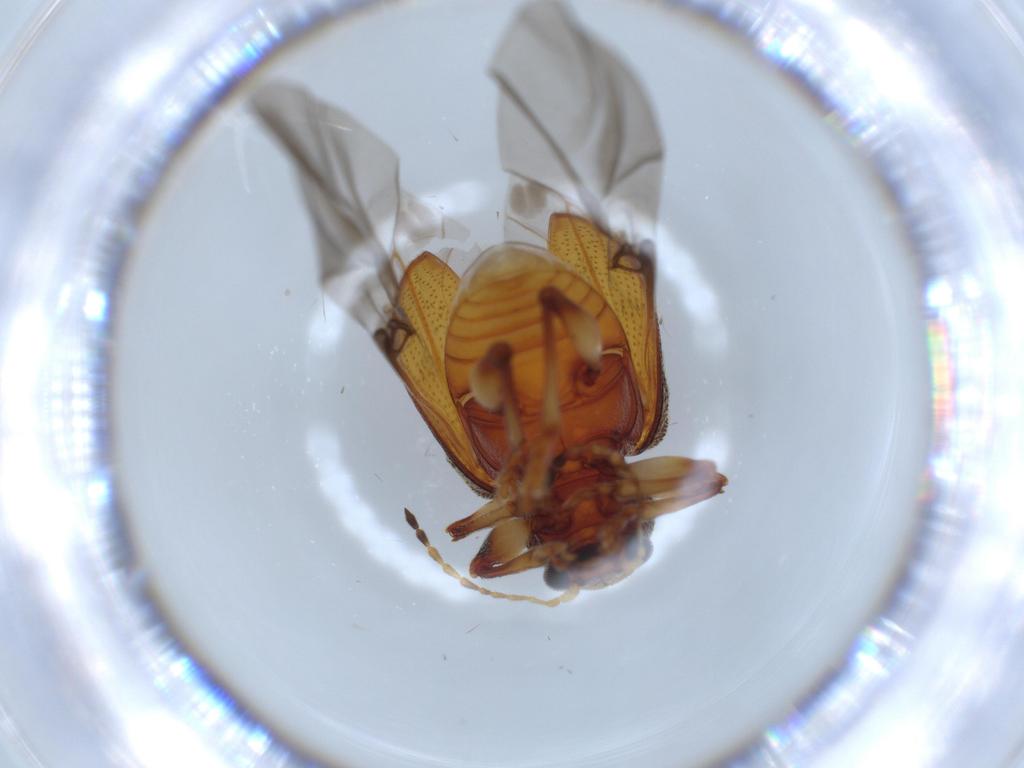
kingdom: Animalia
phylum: Arthropoda
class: Insecta
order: Coleoptera
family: Chrysomelidae
